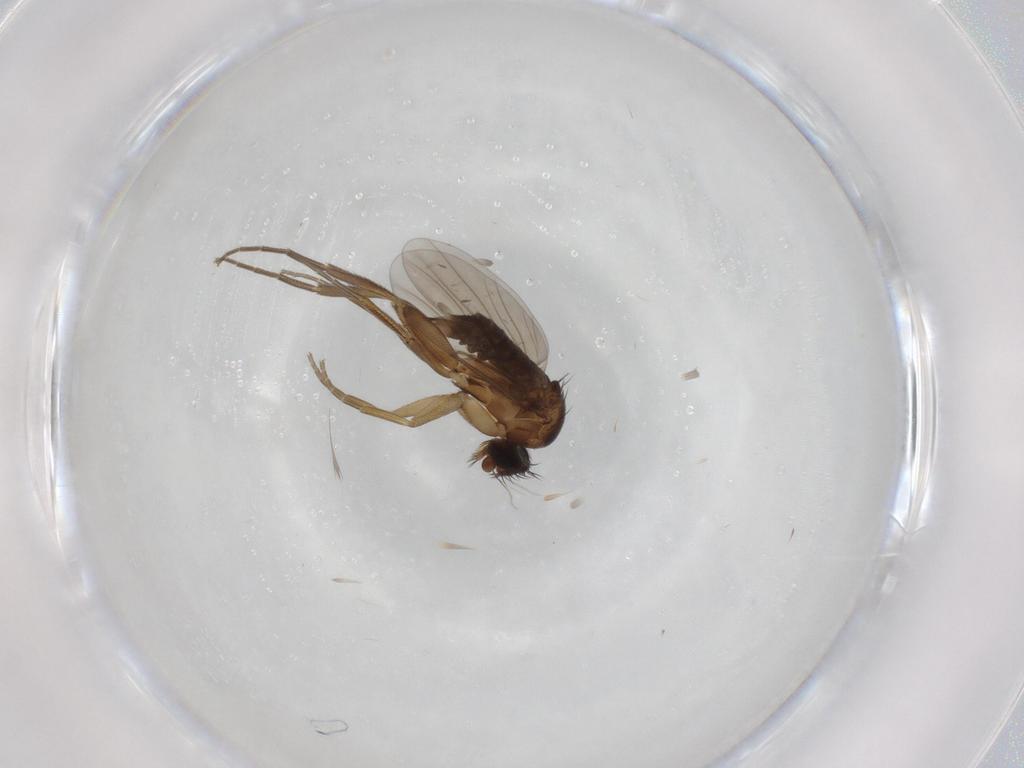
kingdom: Animalia
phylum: Arthropoda
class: Insecta
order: Diptera
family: Phoridae
